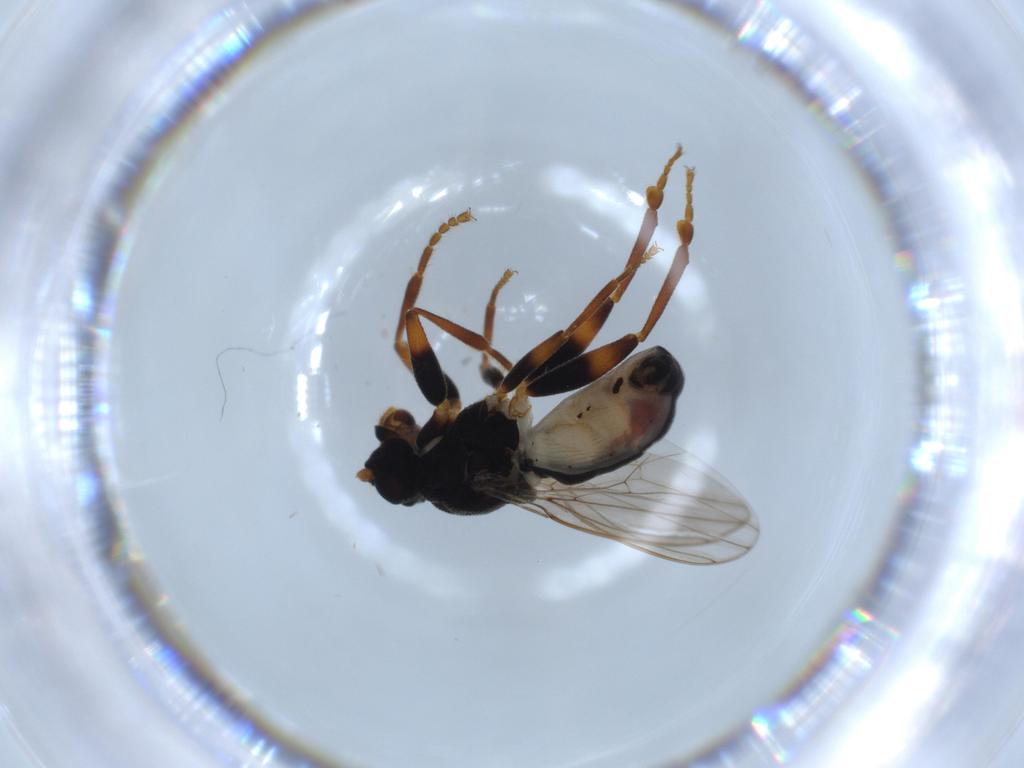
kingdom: Animalia
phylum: Arthropoda
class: Insecta
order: Diptera
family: Sphaeroceridae
